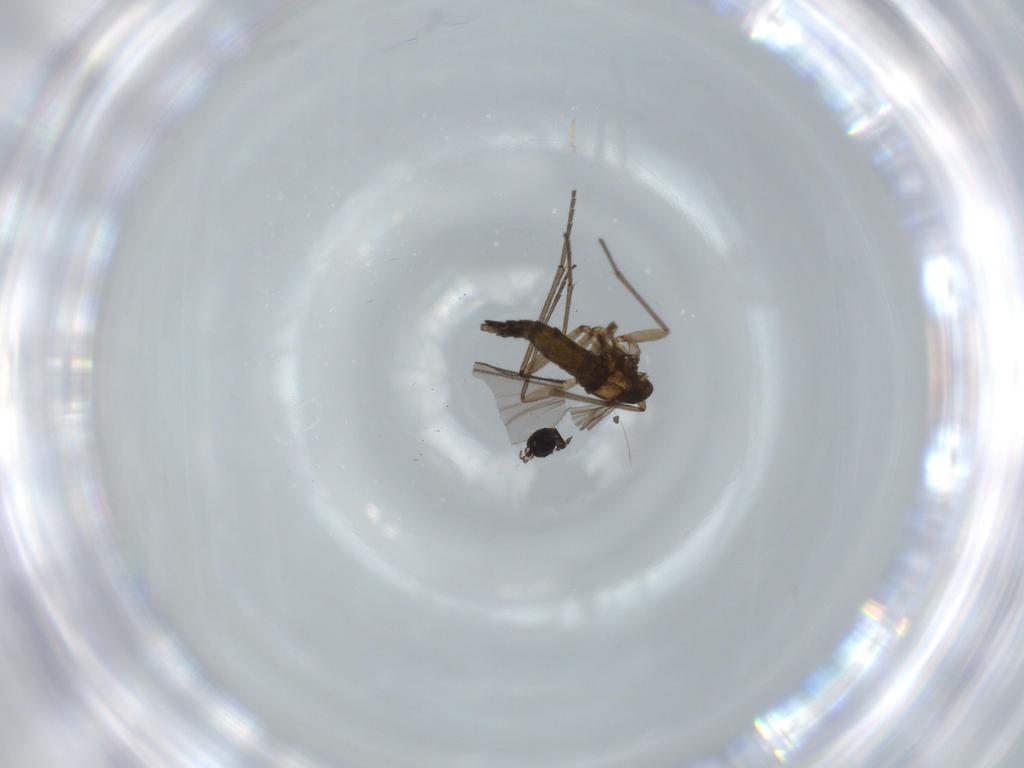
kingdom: Animalia
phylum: Arthropoda
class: Insecta
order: Diptera
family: Sciaridae
